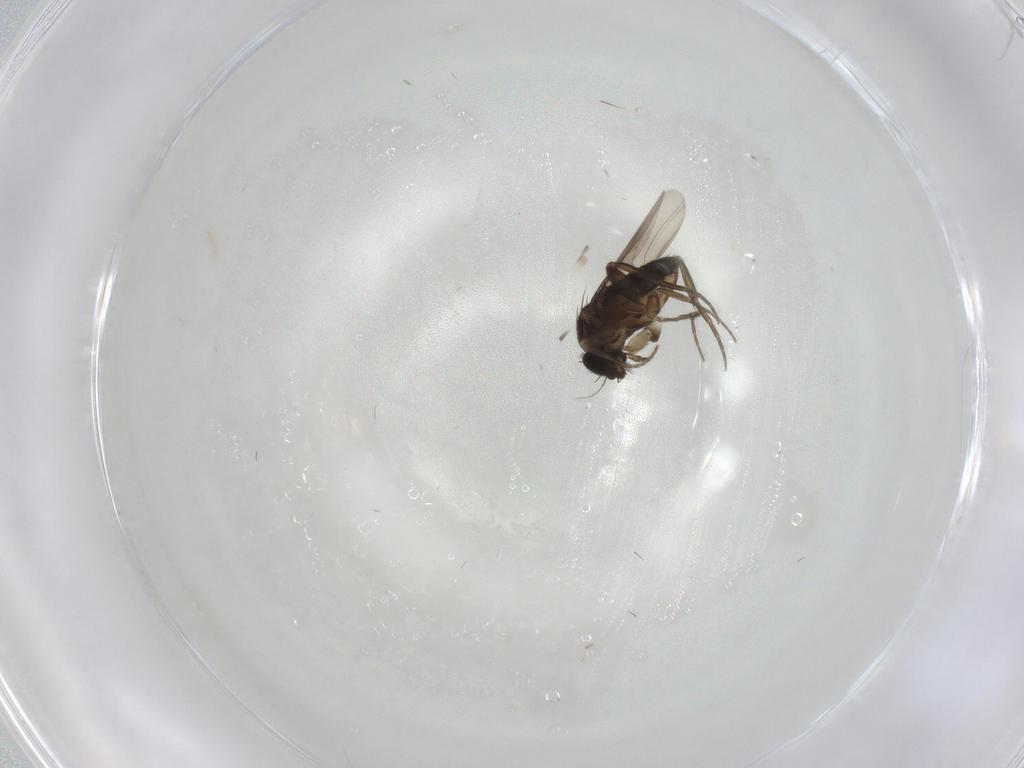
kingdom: Animalia
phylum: Arthropoda
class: Insecta
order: Diptera
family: Phoridae
